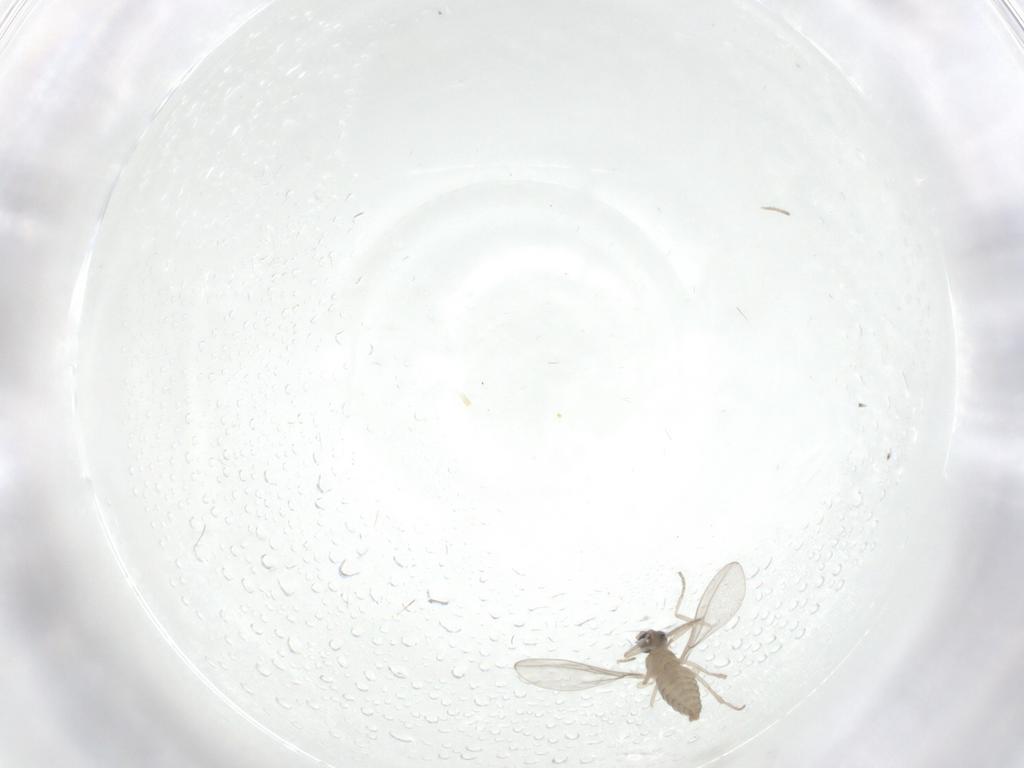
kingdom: Animalia
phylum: Arthropoda
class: Insecta
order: Diptera
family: Cecidomyiidae
